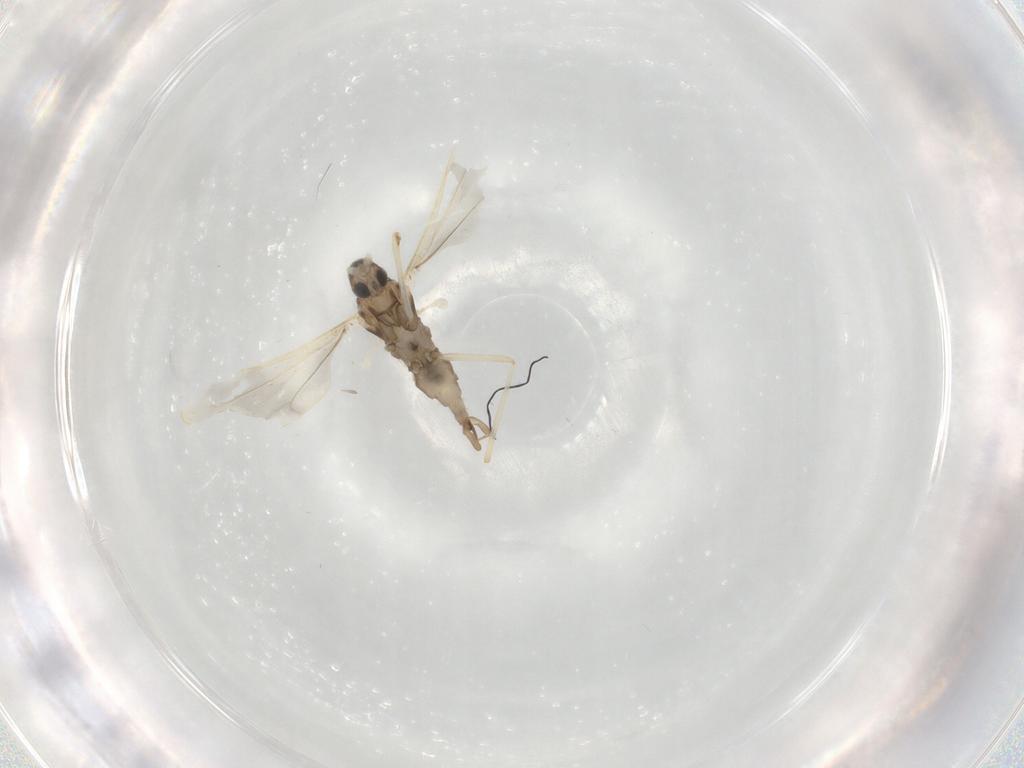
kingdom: Animalia
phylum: Arthropoda
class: Insecta
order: Diptera
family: Cecidomyiidae
